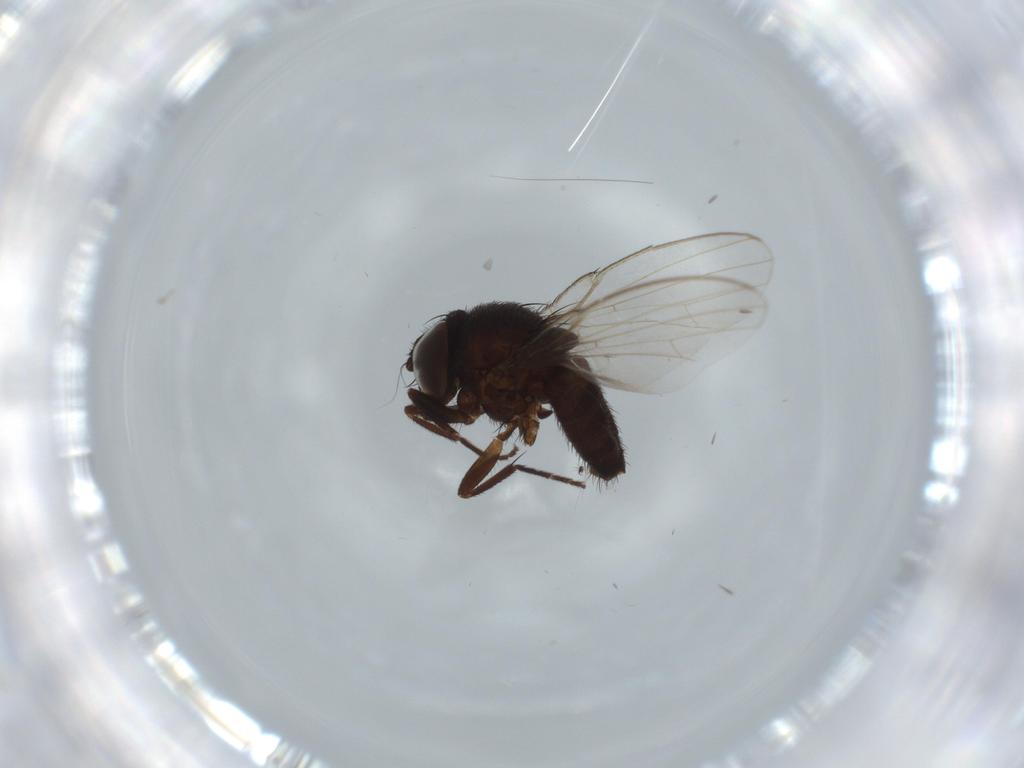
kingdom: Animalia
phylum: Arthropoda
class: Insecta
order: Diptera
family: Milichiidae
